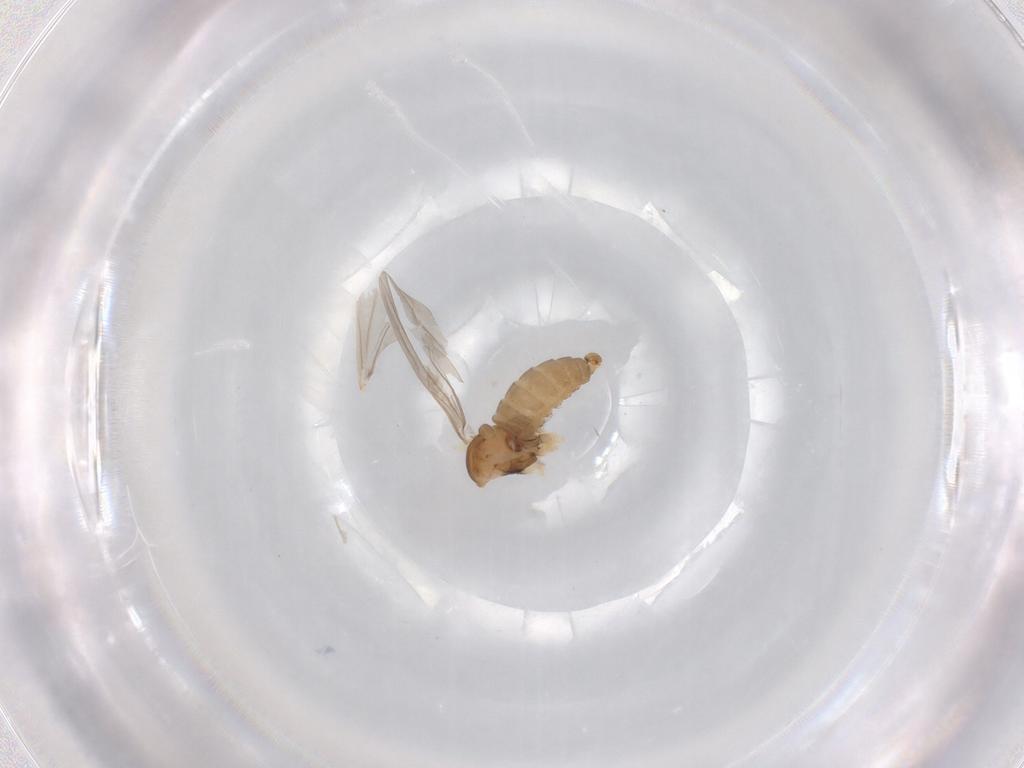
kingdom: Animalia
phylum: Arthropoda
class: Insecta
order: Diptera
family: Cecidomyiidae
